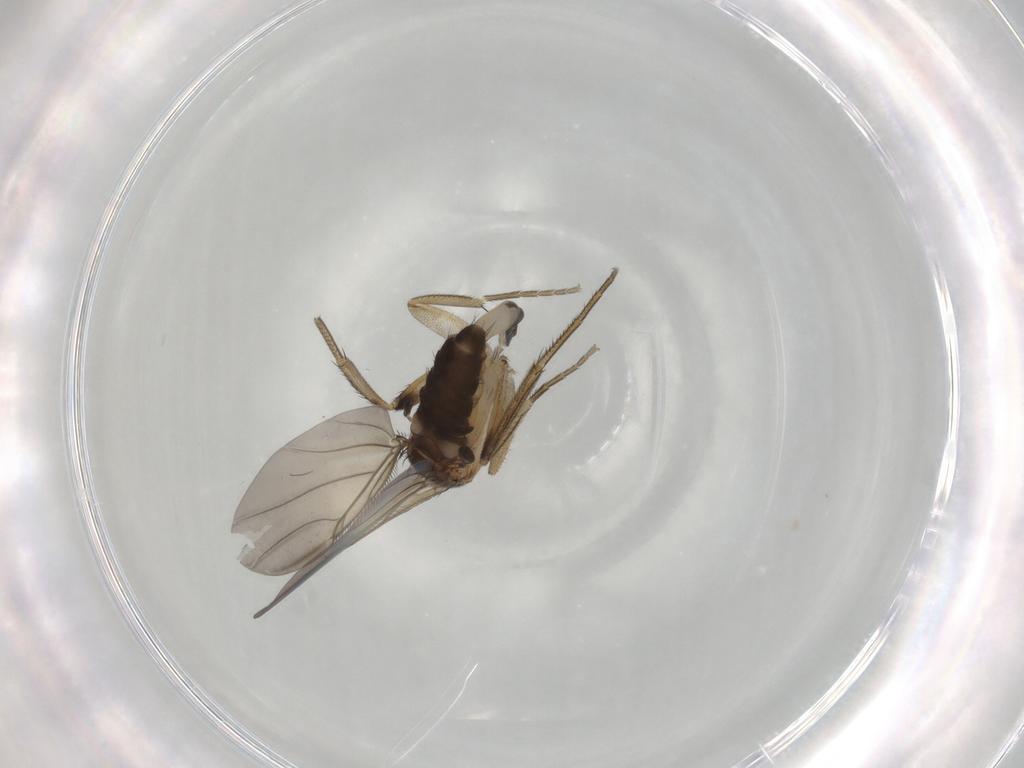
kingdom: Animalia
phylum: Arthropoda
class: Insecta
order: Diptera
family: Phoridae
